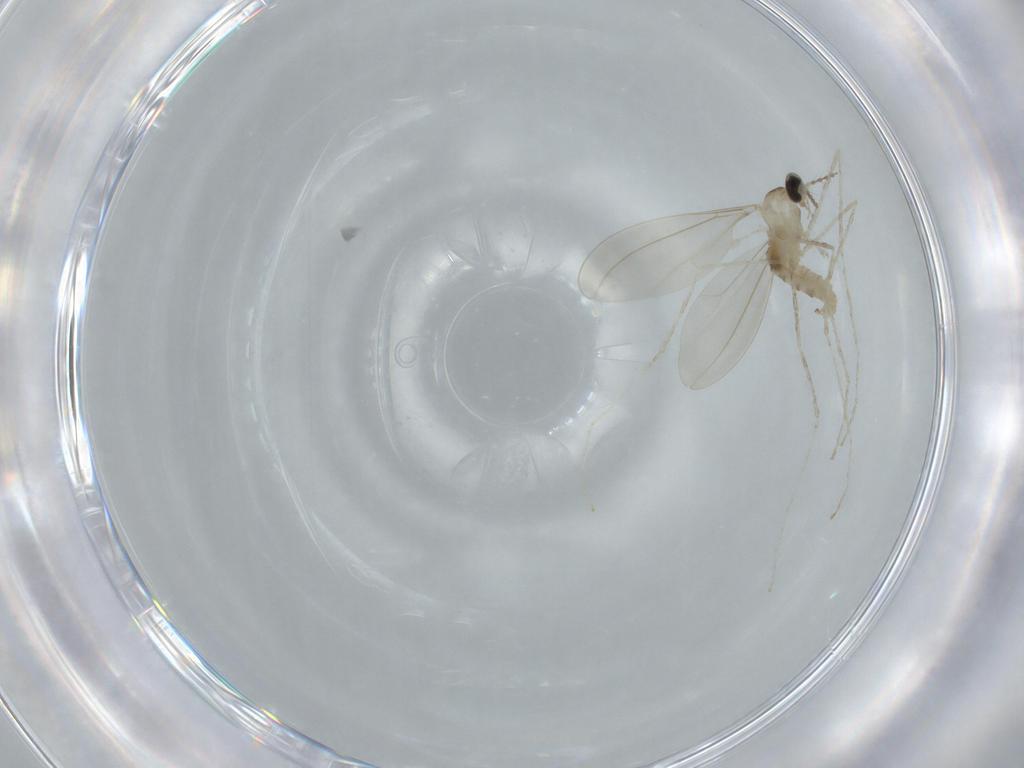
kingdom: Animalia
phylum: Arthropoda
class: Insecta
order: Diptera
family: Cecidomyiidae
